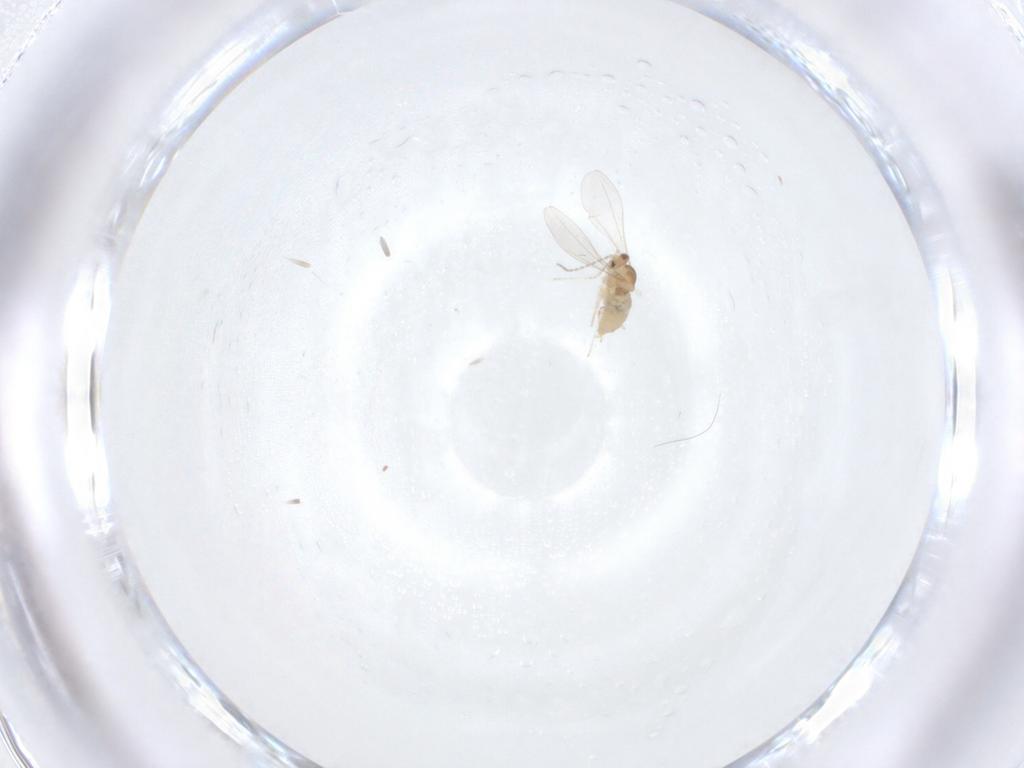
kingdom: Animalia
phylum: Arthropoda
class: Insecta
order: Diptera
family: Cecidomyiidae
